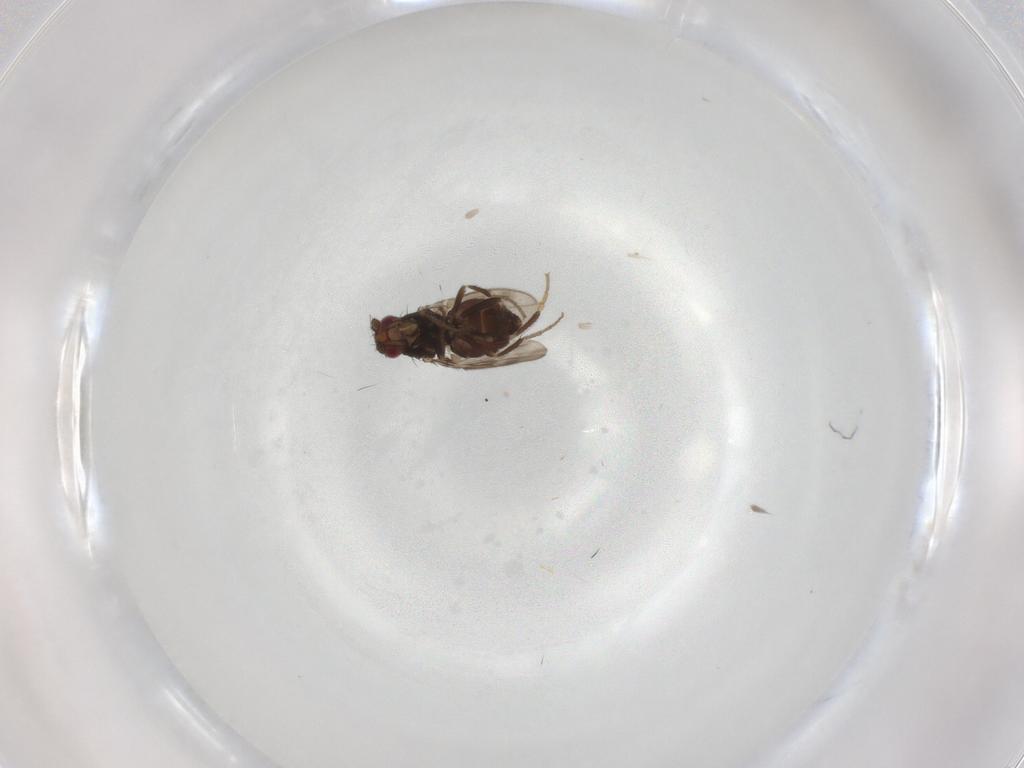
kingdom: Animalia
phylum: Arthropoda
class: Insecta
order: Diptera
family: Sphaeroceridae
